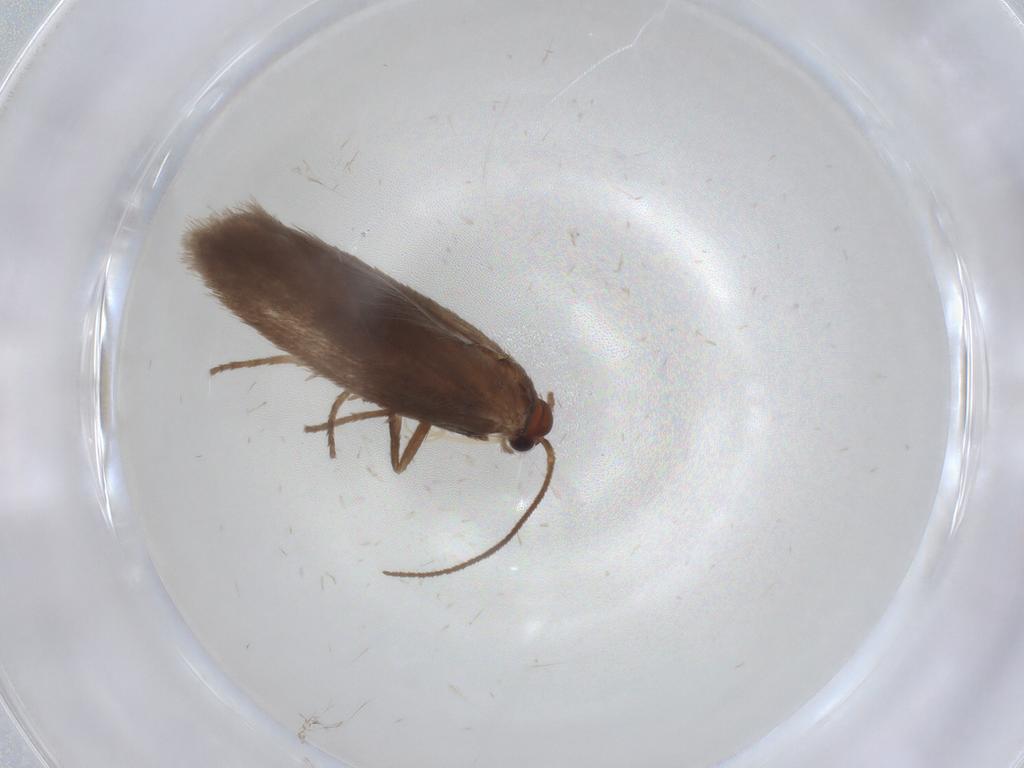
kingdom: Animalia
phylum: Arthropoda
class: Insecta
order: Lepidoptera
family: Limacodidae
